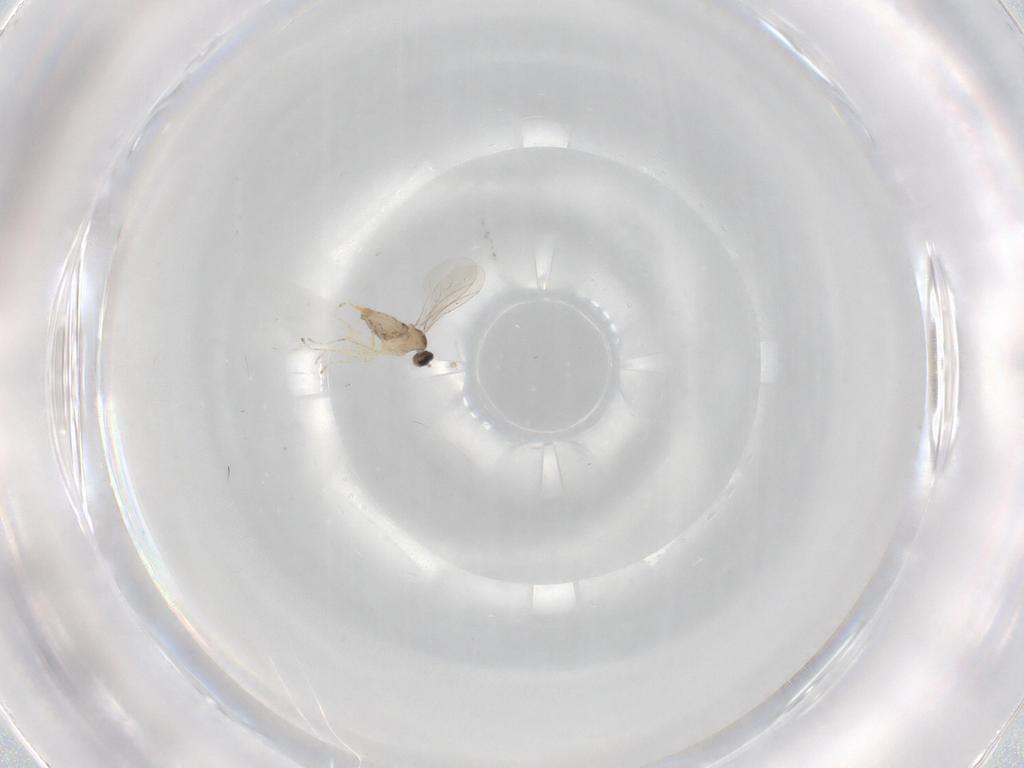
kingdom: Animalia
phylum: Arthropoda
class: Insecta
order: Diptera
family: Cecidomyiidae
